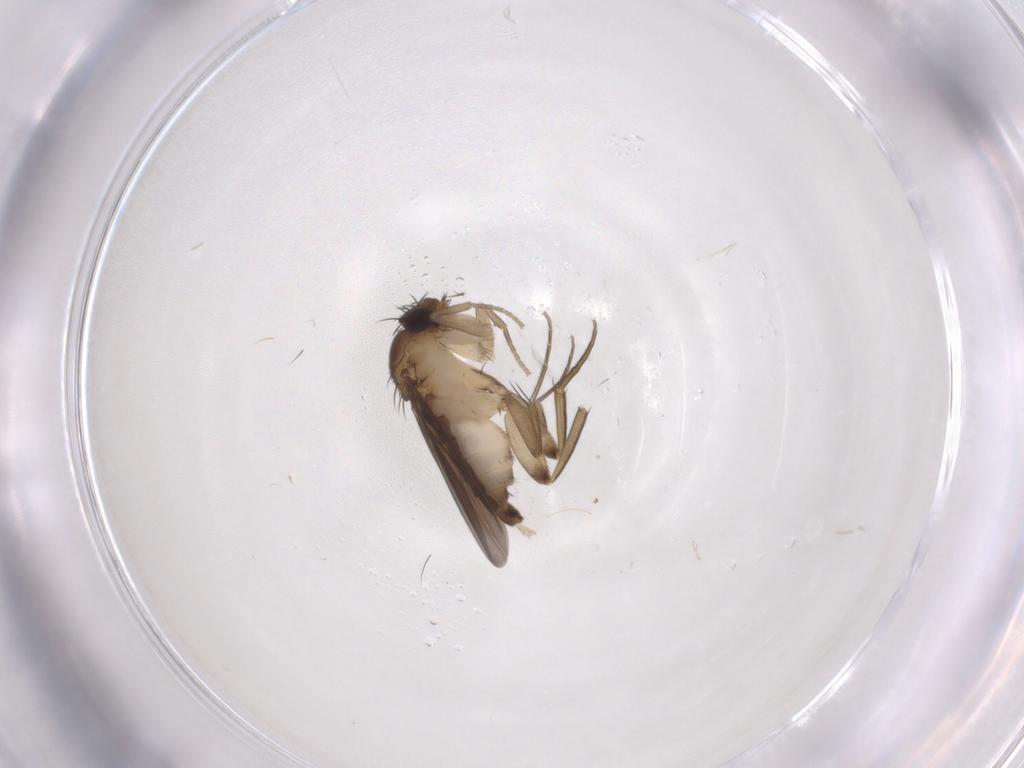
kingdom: Animalia
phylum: Arthropoda
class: Insecta
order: Diptera
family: Phoridae
